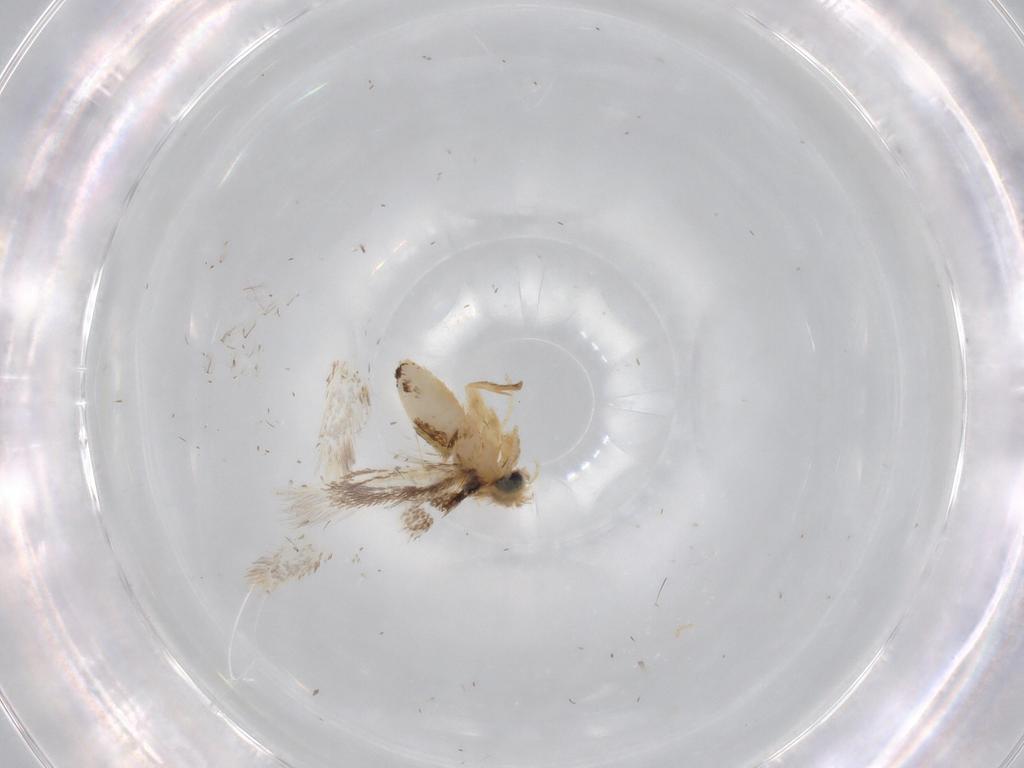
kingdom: Animalia
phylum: Arthropoda
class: Insecta
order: Lepidoptera
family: Nepticulidae
